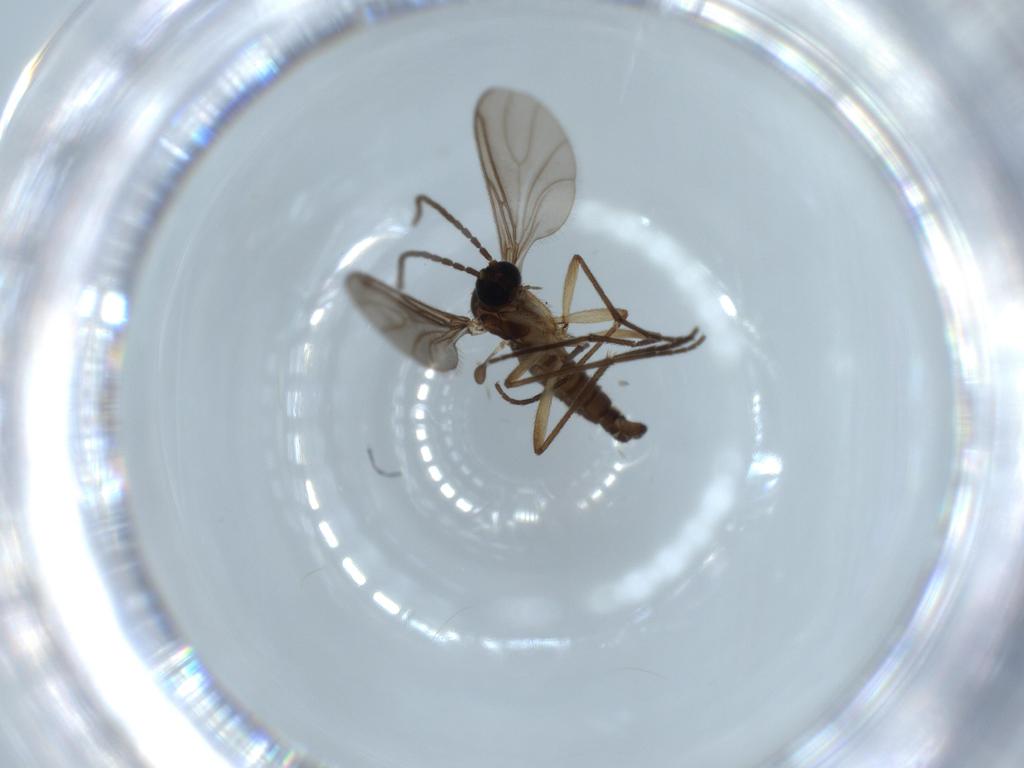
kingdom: Animalia
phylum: Arthropoda
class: Insecta
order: Diptera
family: Sciaridae
